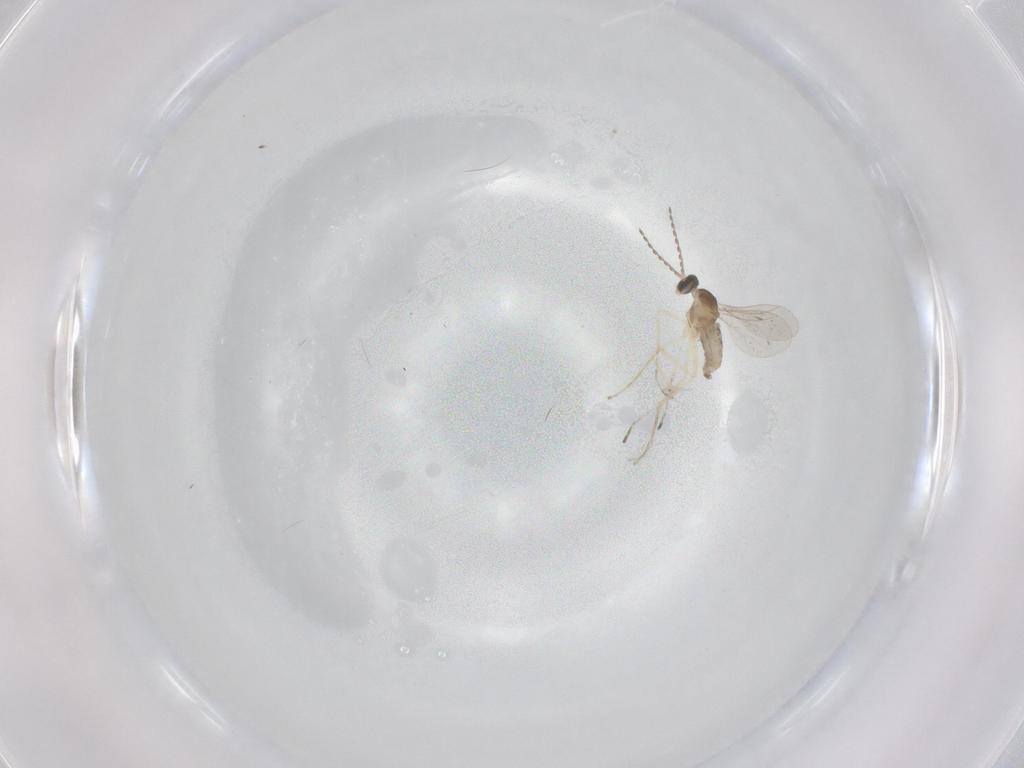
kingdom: Animalia
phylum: Arthropoda
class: Insecta
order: Diptera
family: Cecidomyiidae
